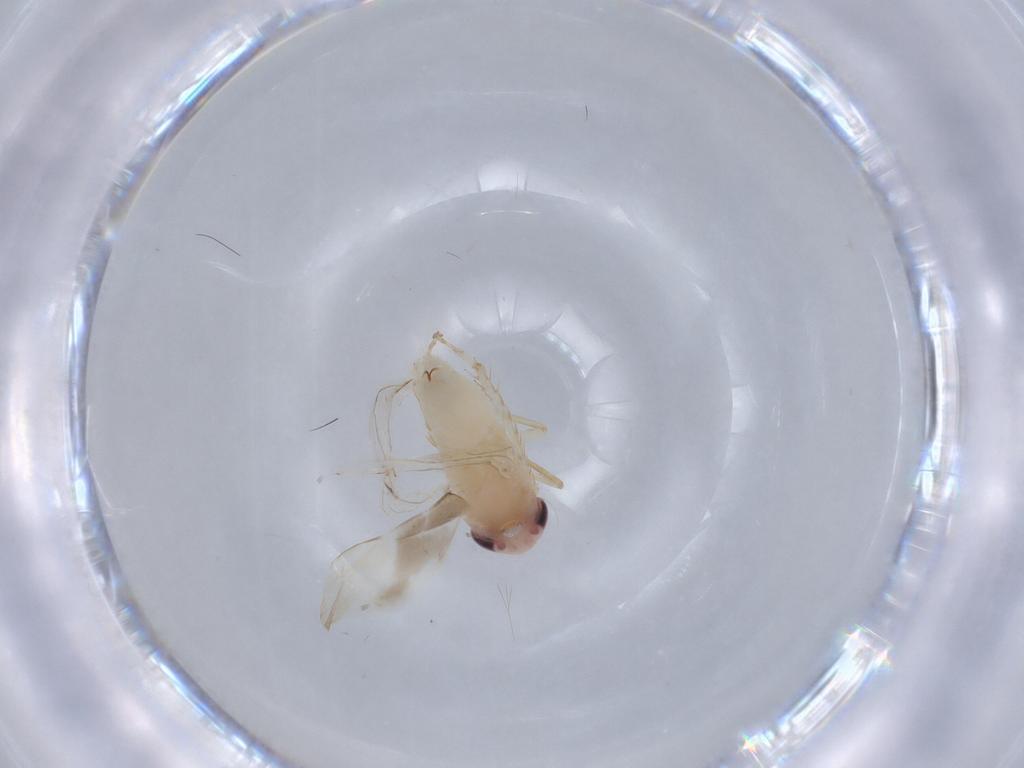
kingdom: Animalia
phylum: Arthropoda
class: Insecta
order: Hemiptera
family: Cicadellidae
